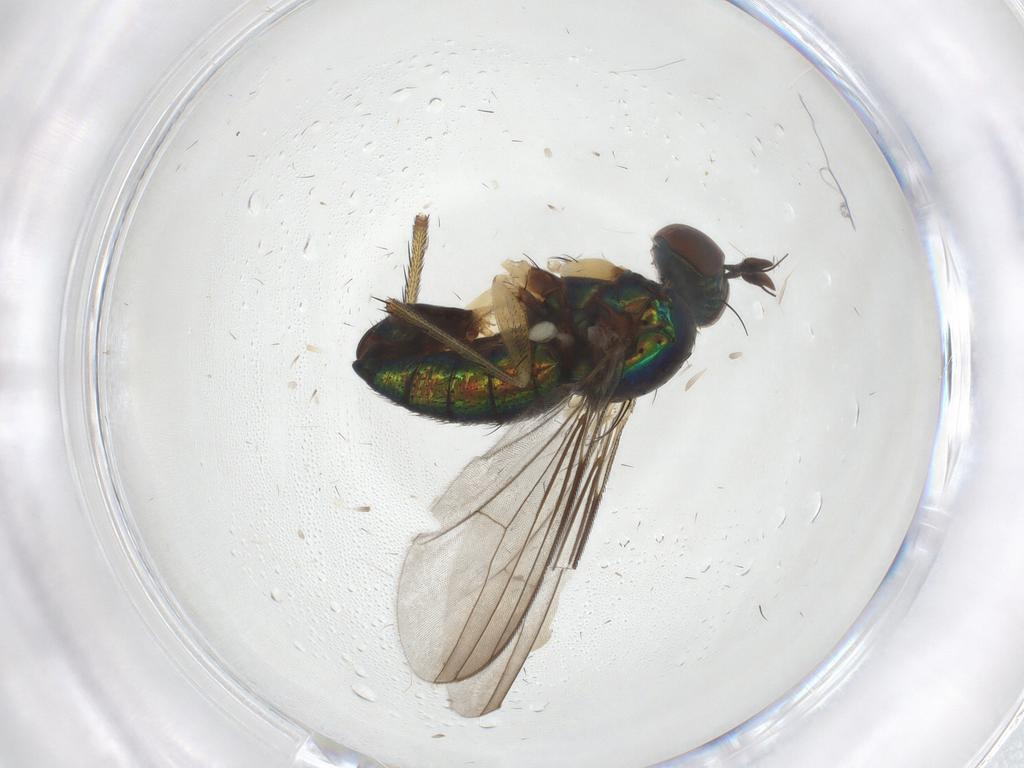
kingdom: Animalia
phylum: Arthropoda
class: Insecta
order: Diptera
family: Dolichopodidae
